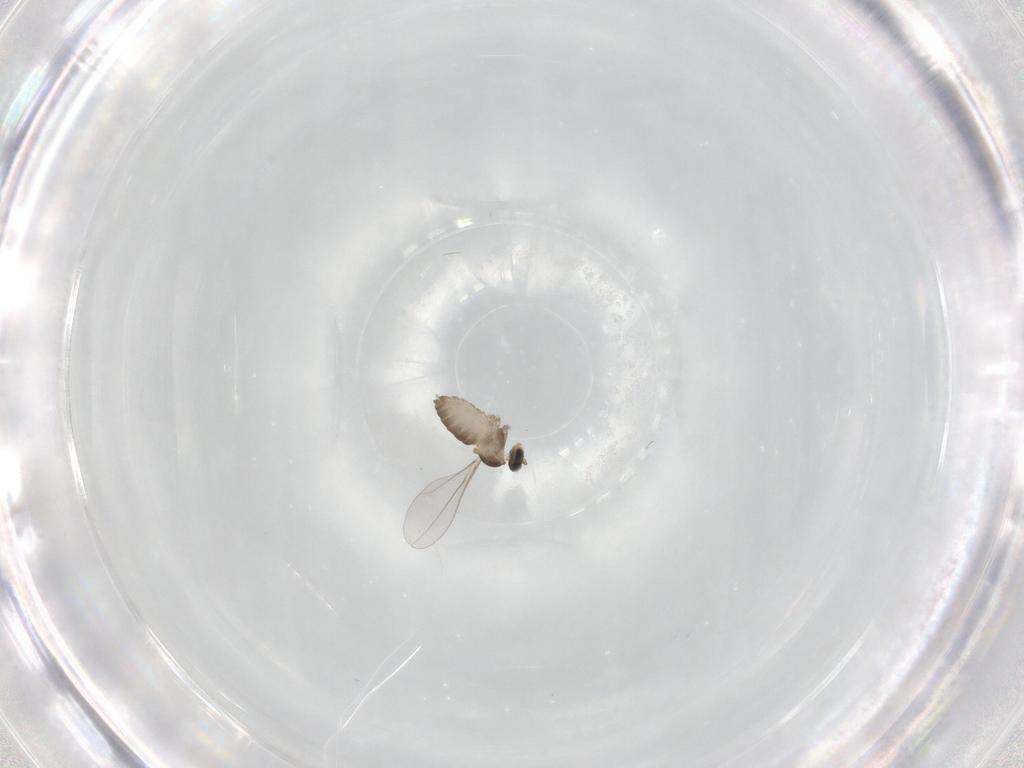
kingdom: Animalia
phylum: Arthropoda
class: Insecta
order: Diptera
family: Cecidomyiidae
